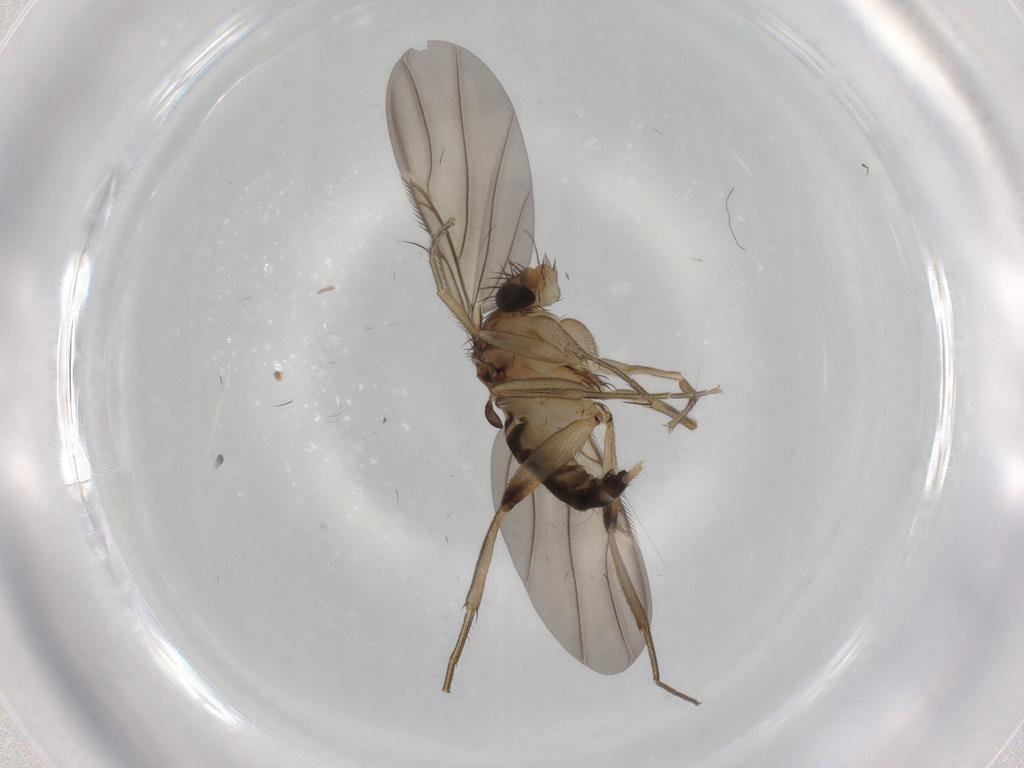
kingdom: Animalia
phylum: Arthropoda
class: Insecta
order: Diptera
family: Phoridae
